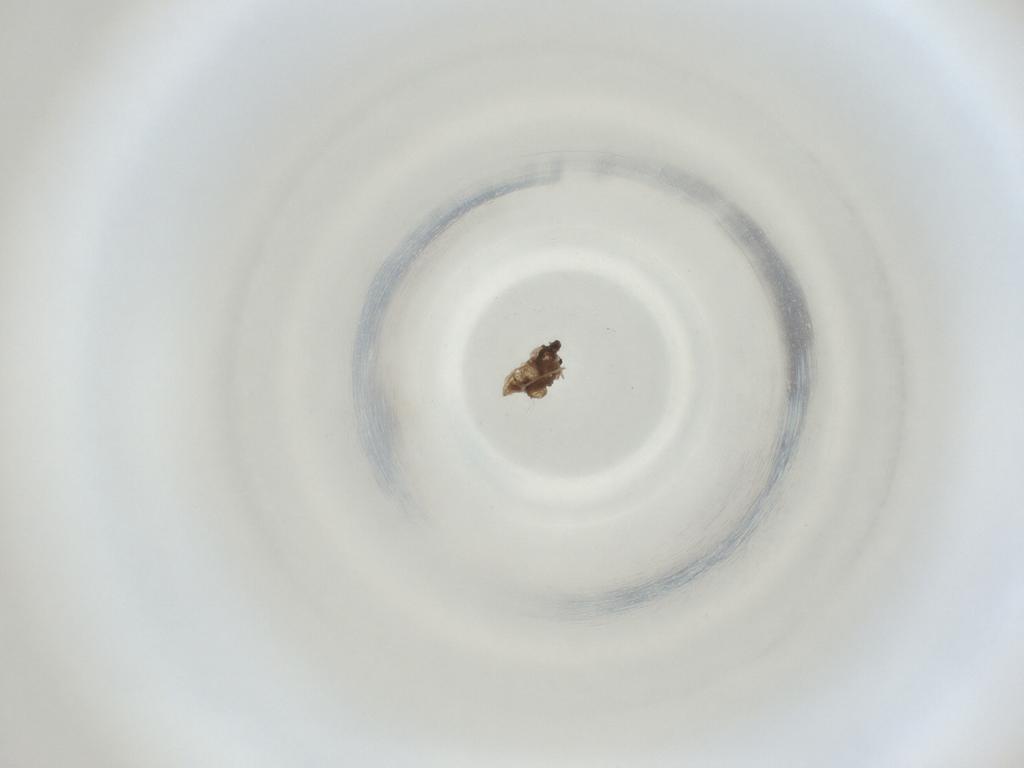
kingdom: Animalia
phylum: Arthropoda
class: Insecta
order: Diptera
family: Cecidomyiidae
